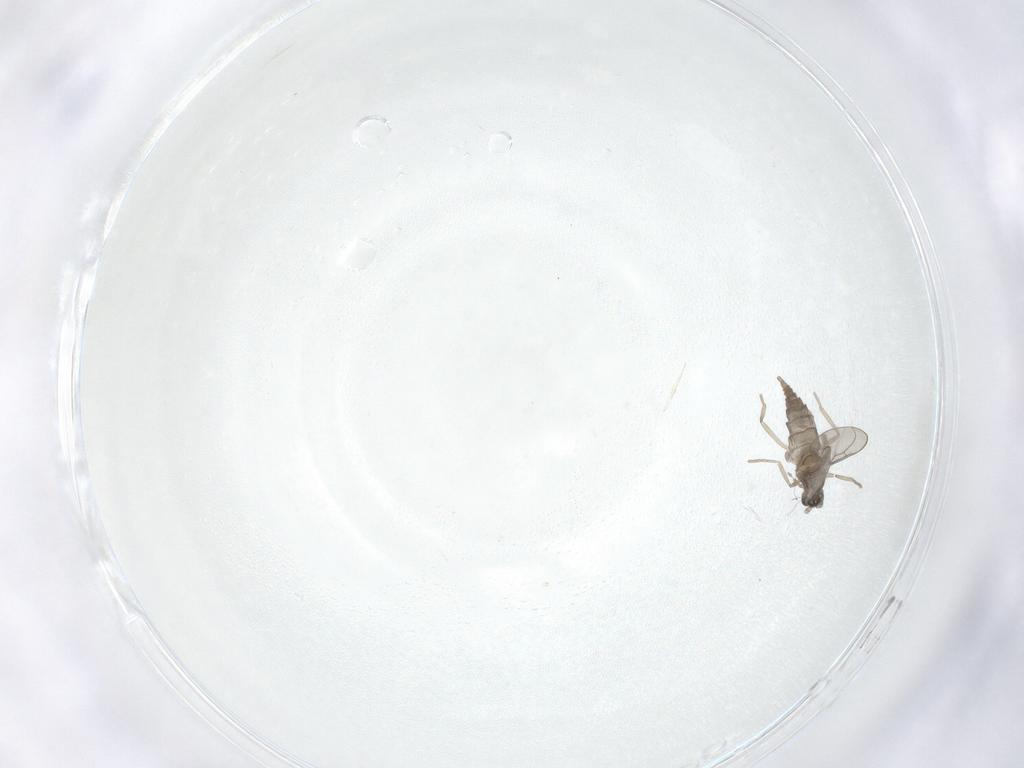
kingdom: Animalia
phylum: Arthropoda
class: Insecta
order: Diptera
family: Cecidomyiidae
